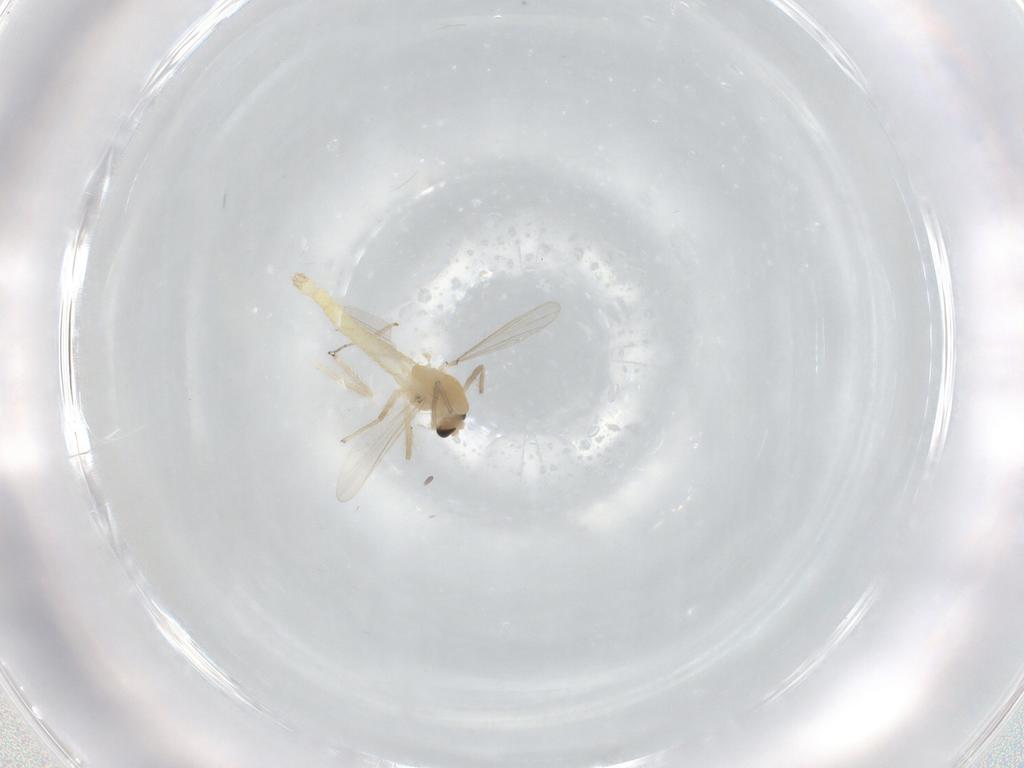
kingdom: Animalia
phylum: Arthropoda
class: Insecta
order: Diptera
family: Chironomidae
